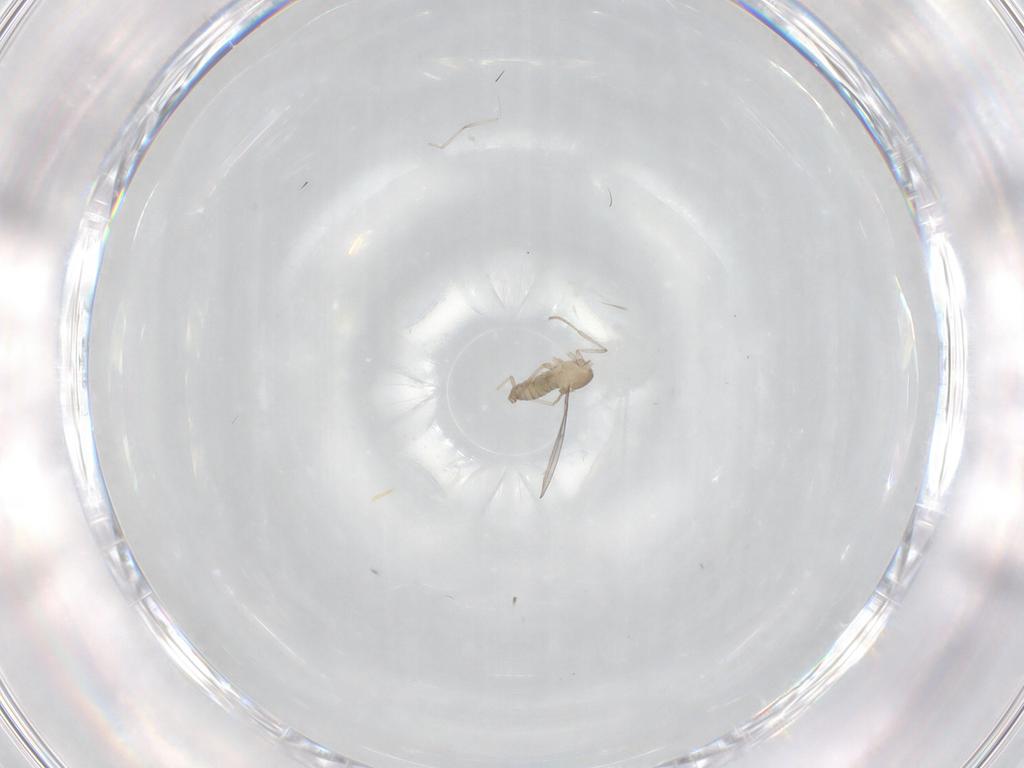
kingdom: Animalia
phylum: Arthropoda
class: Insecta
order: Diptera
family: Cecidomyiidae
